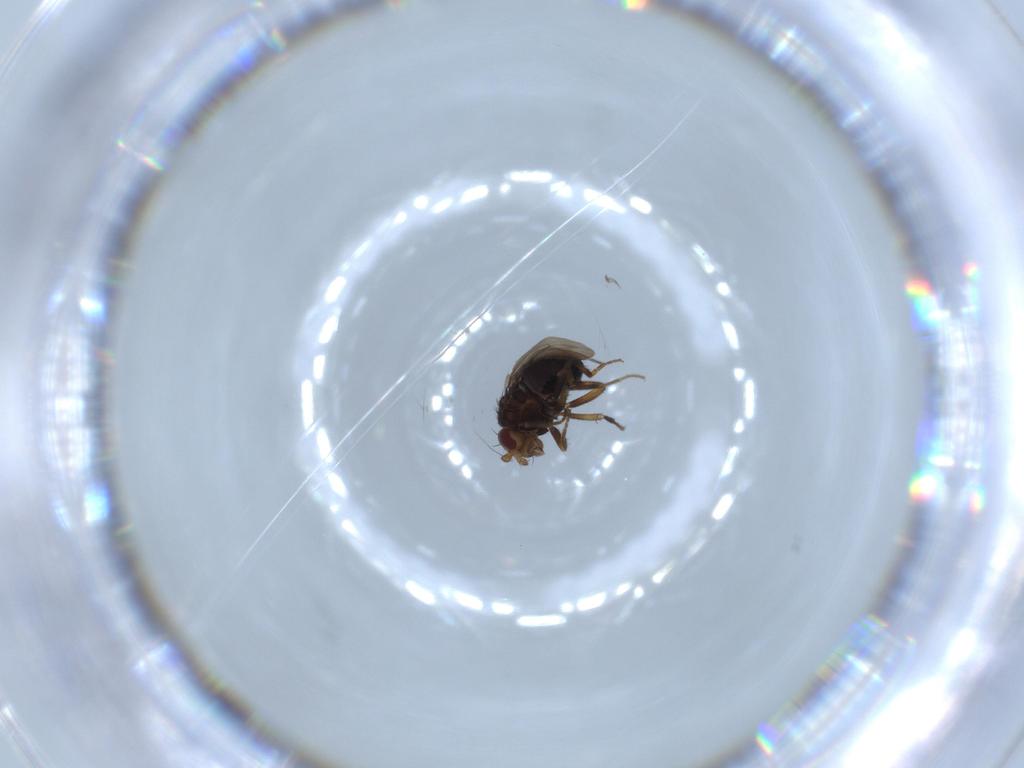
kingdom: Animalia
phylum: Arthropoda
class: Insecta
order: Diptera
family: Sphaeroceridae
